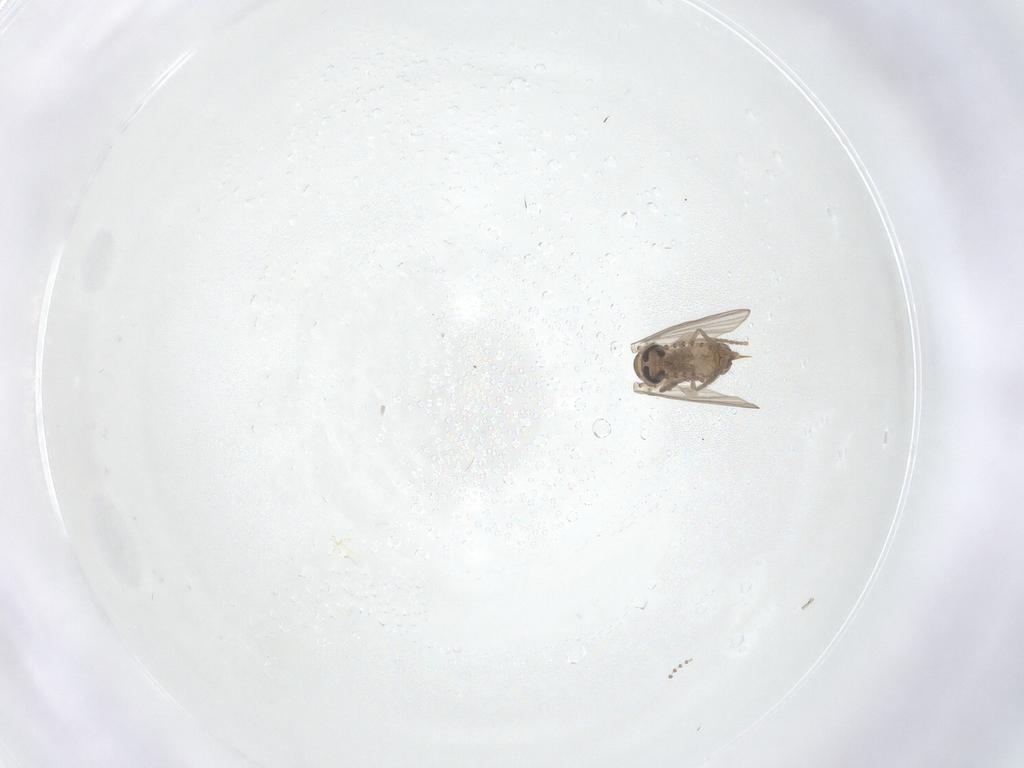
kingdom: Animalia
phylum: Arthropoda
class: Insecta
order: Diptera
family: Psychodidae
